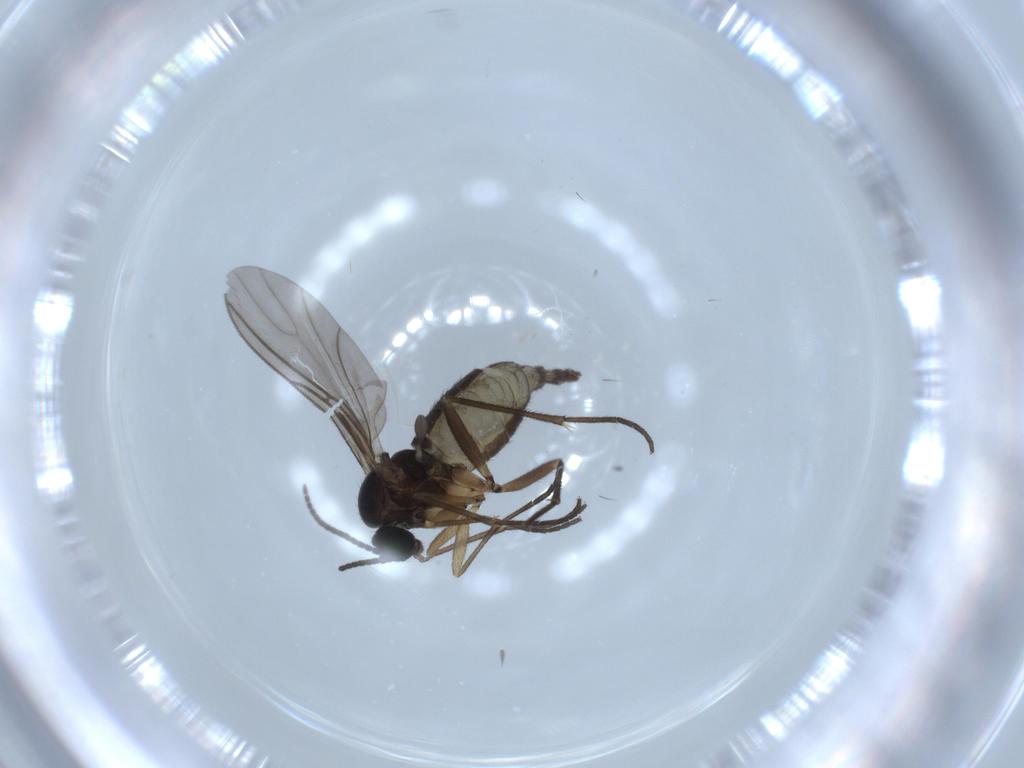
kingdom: Animalia
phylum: Arthropoda
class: Insecta
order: Diptera
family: Sciaridae
